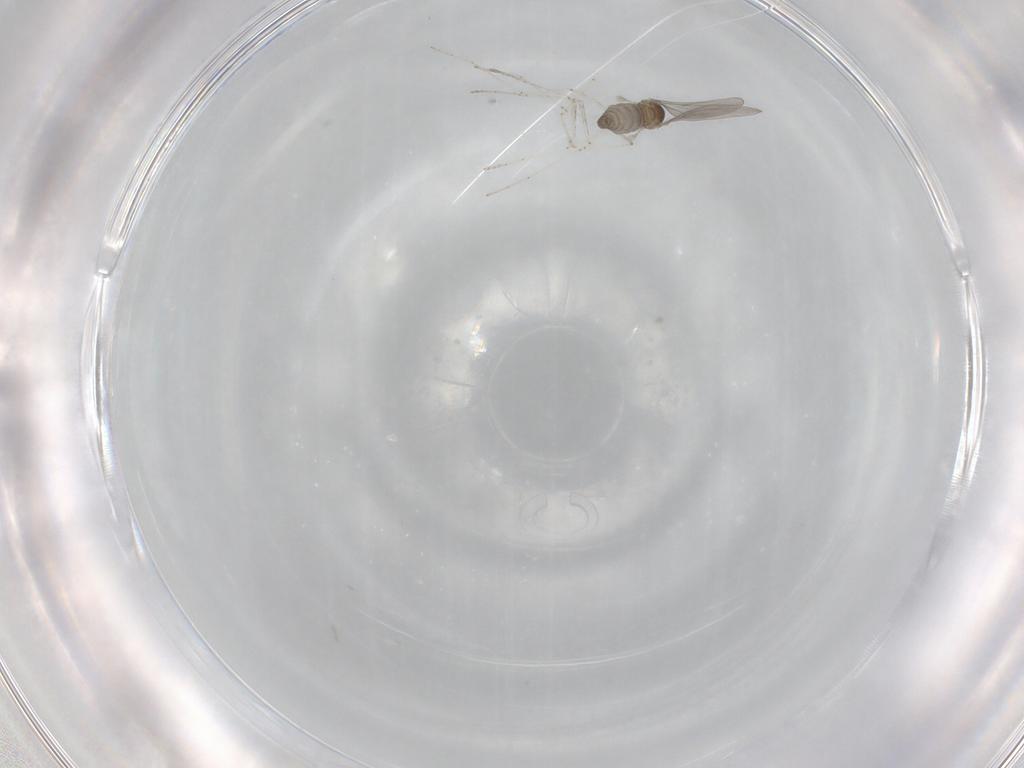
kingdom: Animalia
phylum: Arthropoda
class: Insecta
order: Diptera
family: Cecidomyiidae
